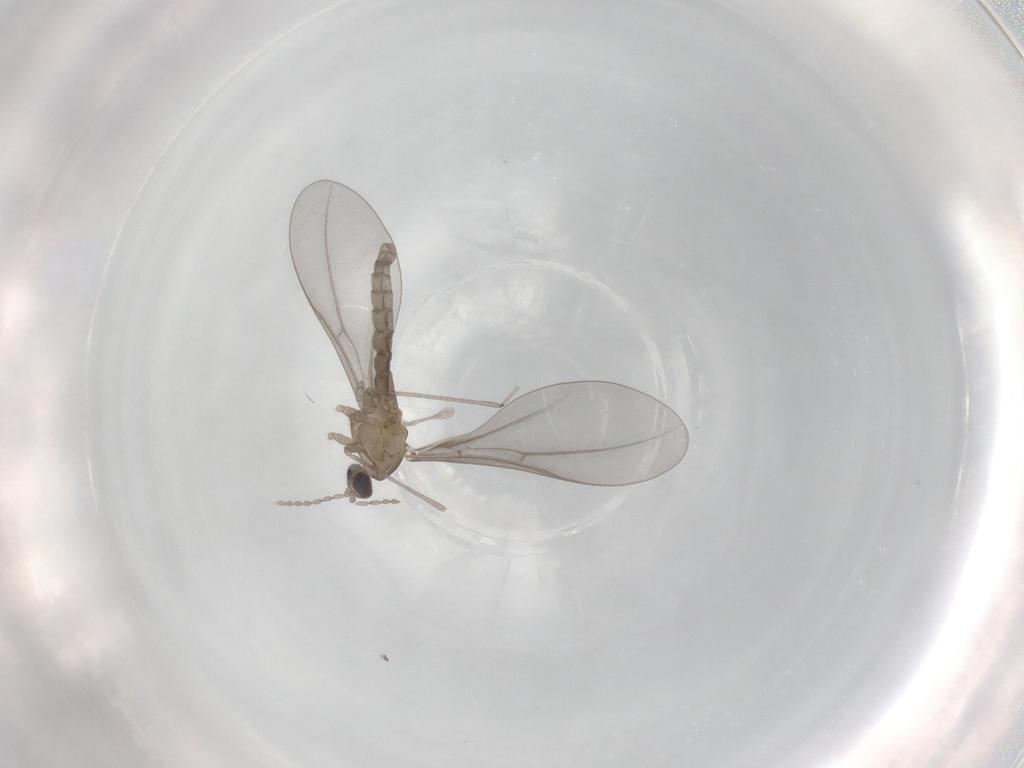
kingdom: Animalia
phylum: Arthropoda
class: Insecta
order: Diptera
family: Cecidomyiidae
